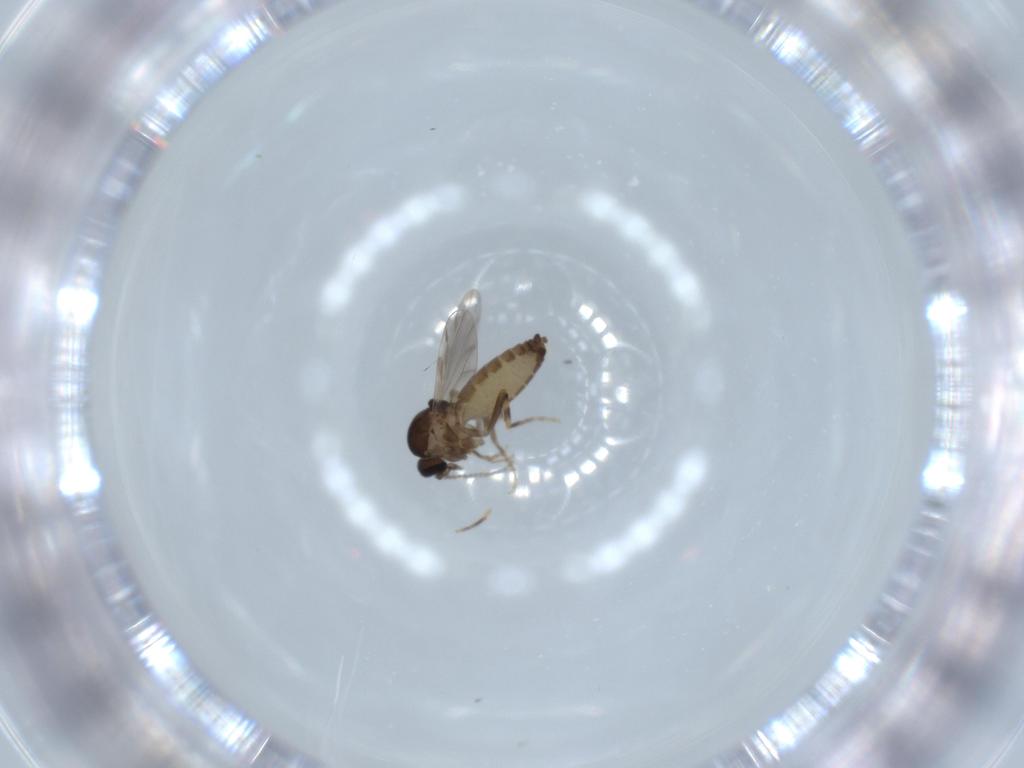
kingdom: Animalia
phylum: Arthropoda
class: Insecta
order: Diptera
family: Ceratopogonidae
